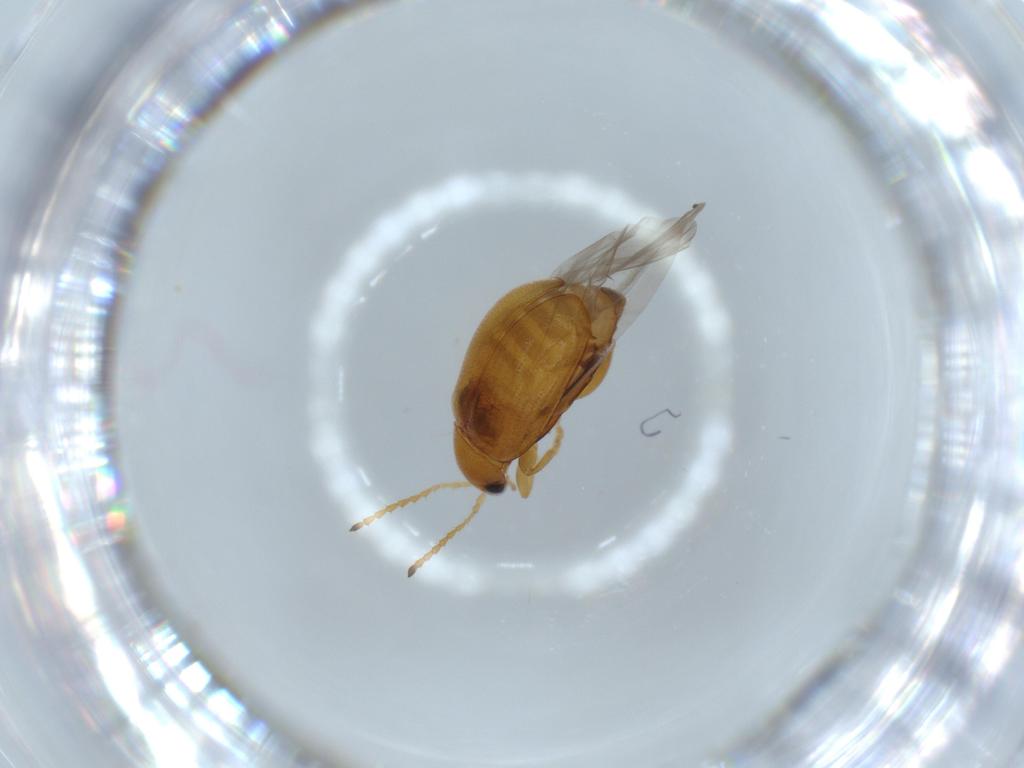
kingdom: Animalia
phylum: Arthropoda
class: Insecta
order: Coleoptera
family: Chrysomelidae
